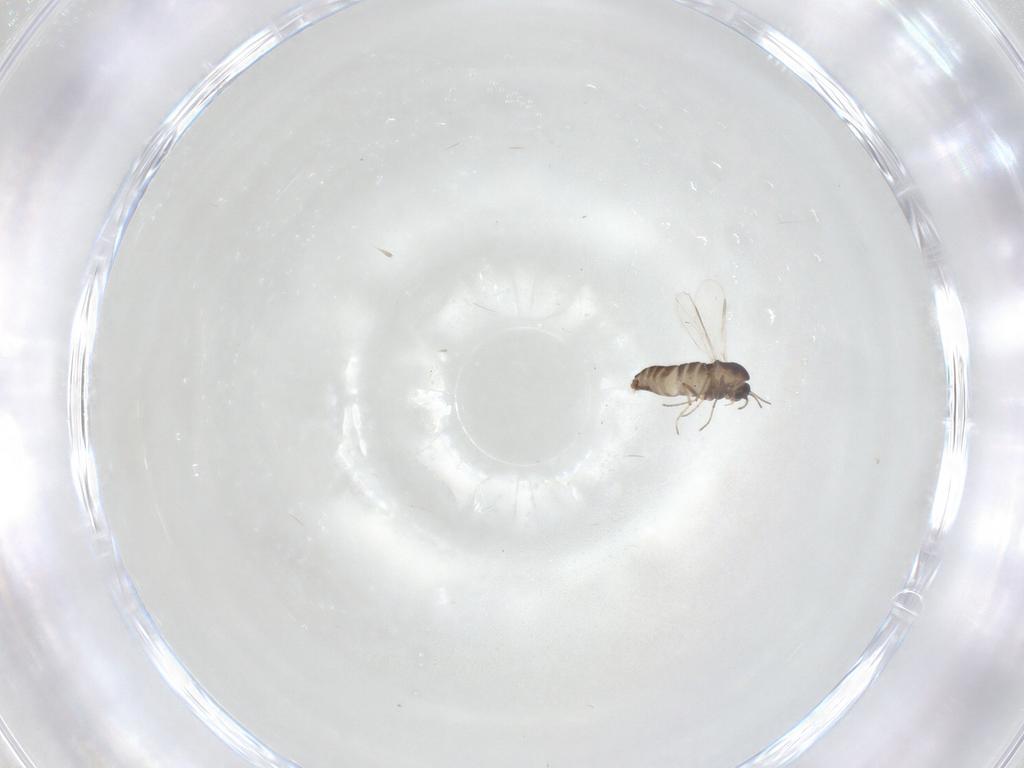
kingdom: Animalia
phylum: Arthropoda
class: Insecta
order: Diptera
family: Chironomidae
